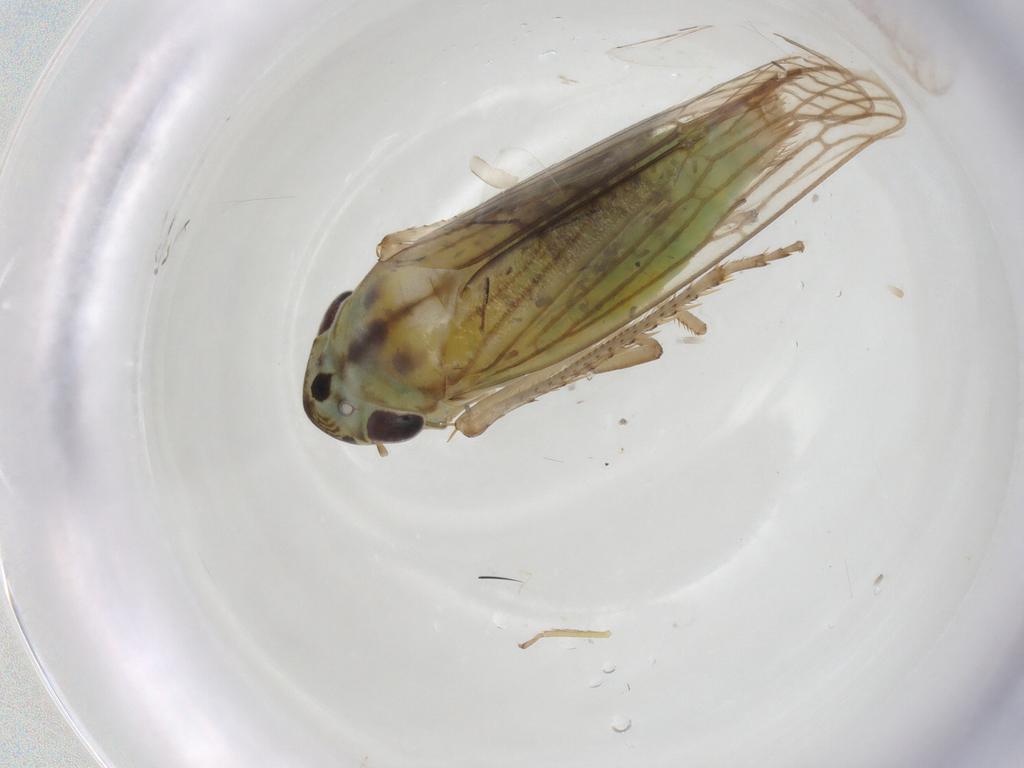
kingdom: Animalia
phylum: Arthropoda
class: Insecta
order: Hemiptera
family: Cicadellidae
